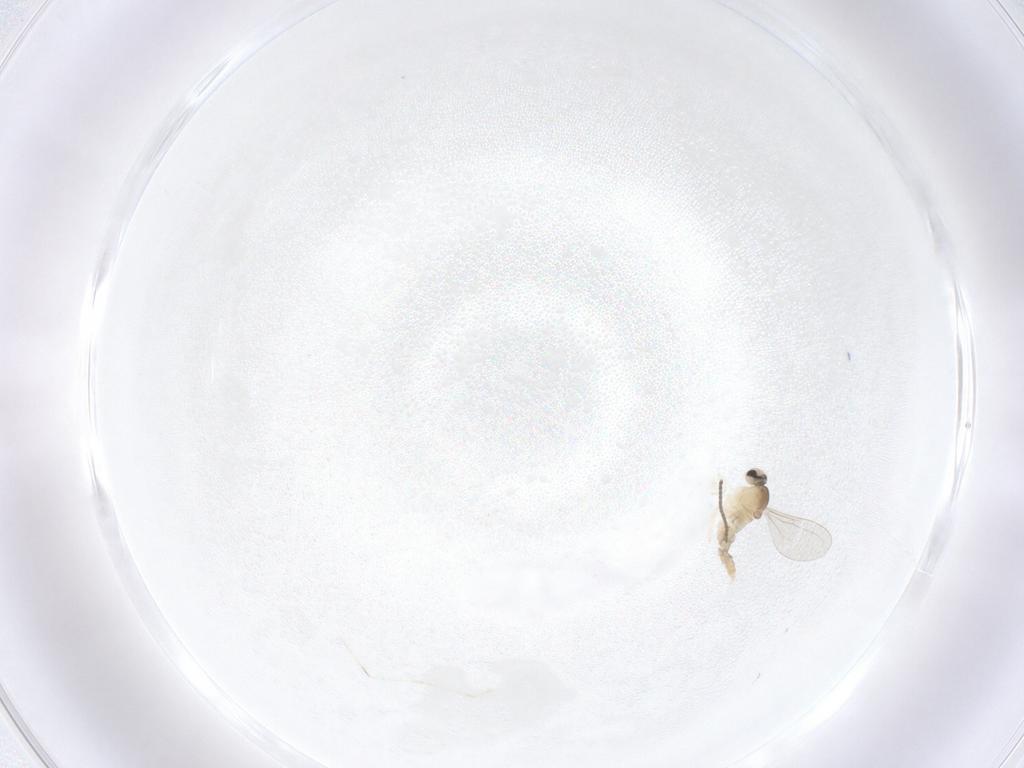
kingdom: Animalia
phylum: Arthropoda
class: Insecta
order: Diptera
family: Cecidomyiidae
